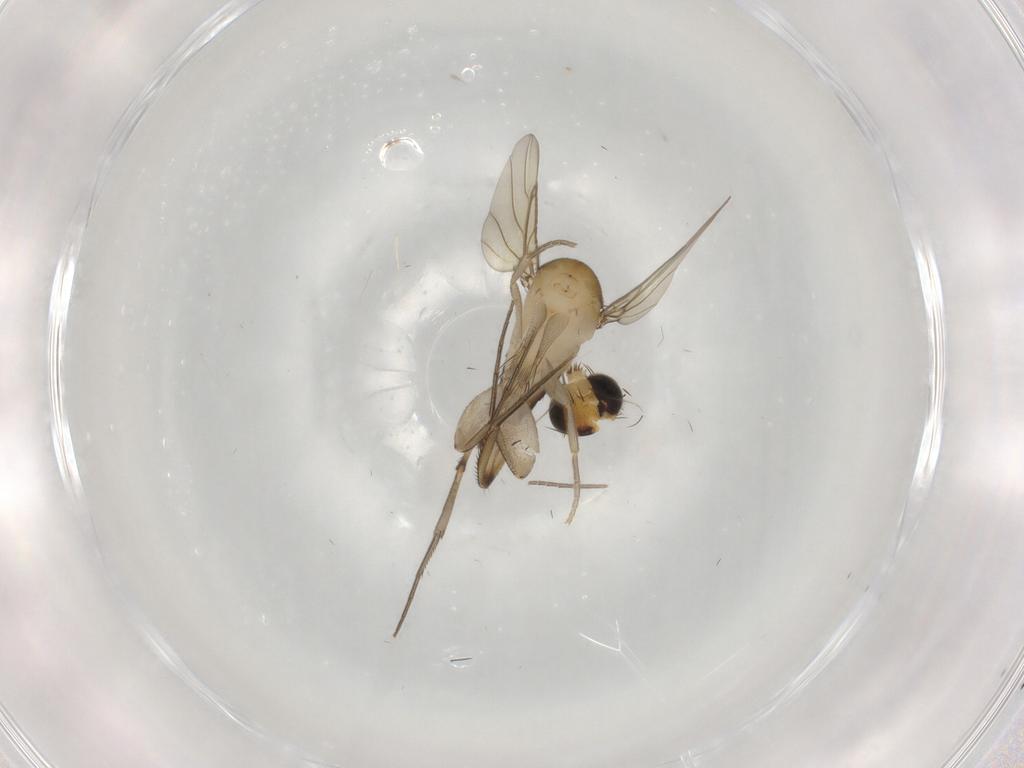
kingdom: Animalia
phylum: Arthropoda
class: Insecta
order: Diptera
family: Phoridae
